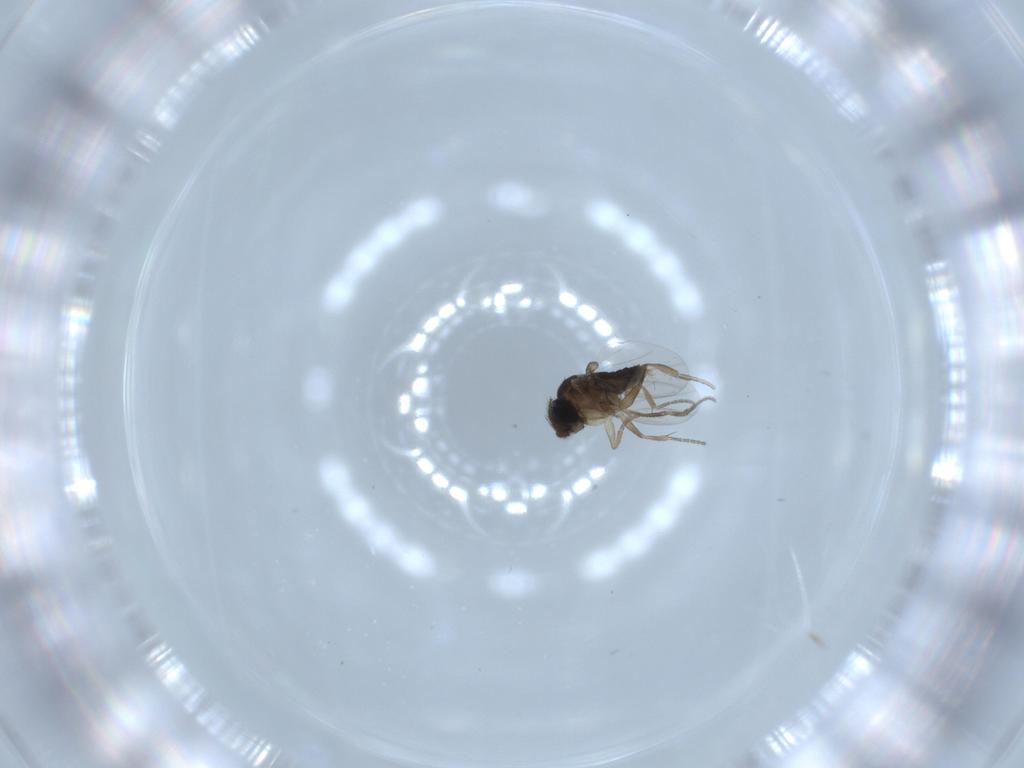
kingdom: Animalia
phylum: Arthropoda
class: Insecta
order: Diptera
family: Phoridae
